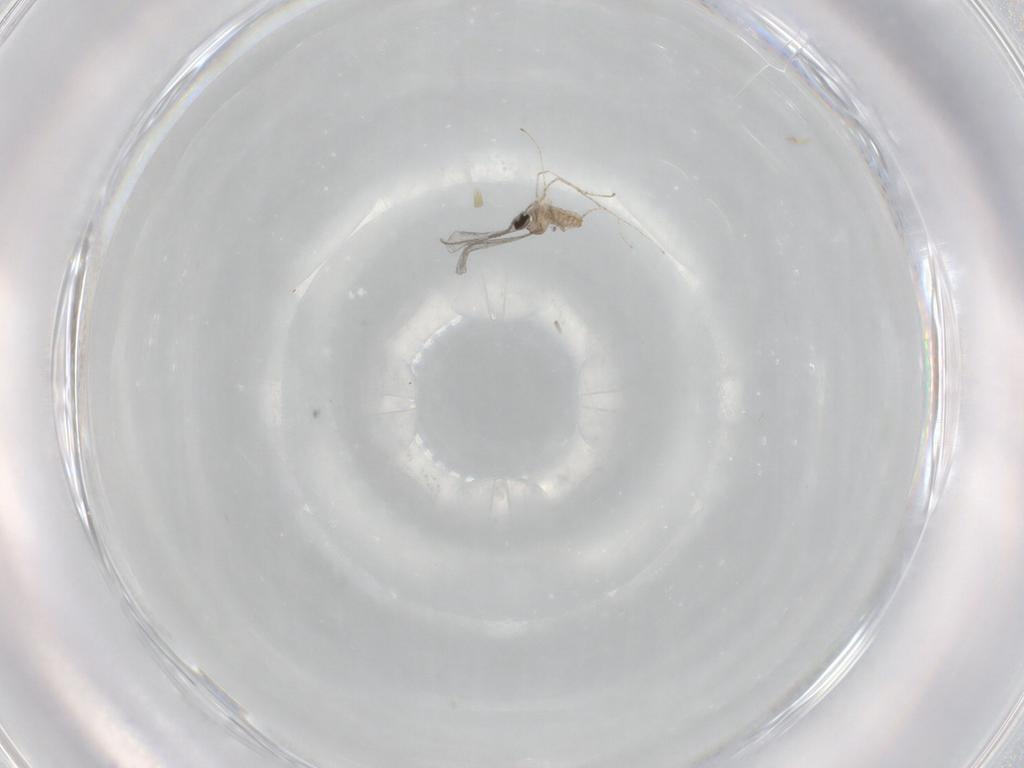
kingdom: Animalia
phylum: Arthropoda
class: Insecta
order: Diptera
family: Cecidomyiidae
